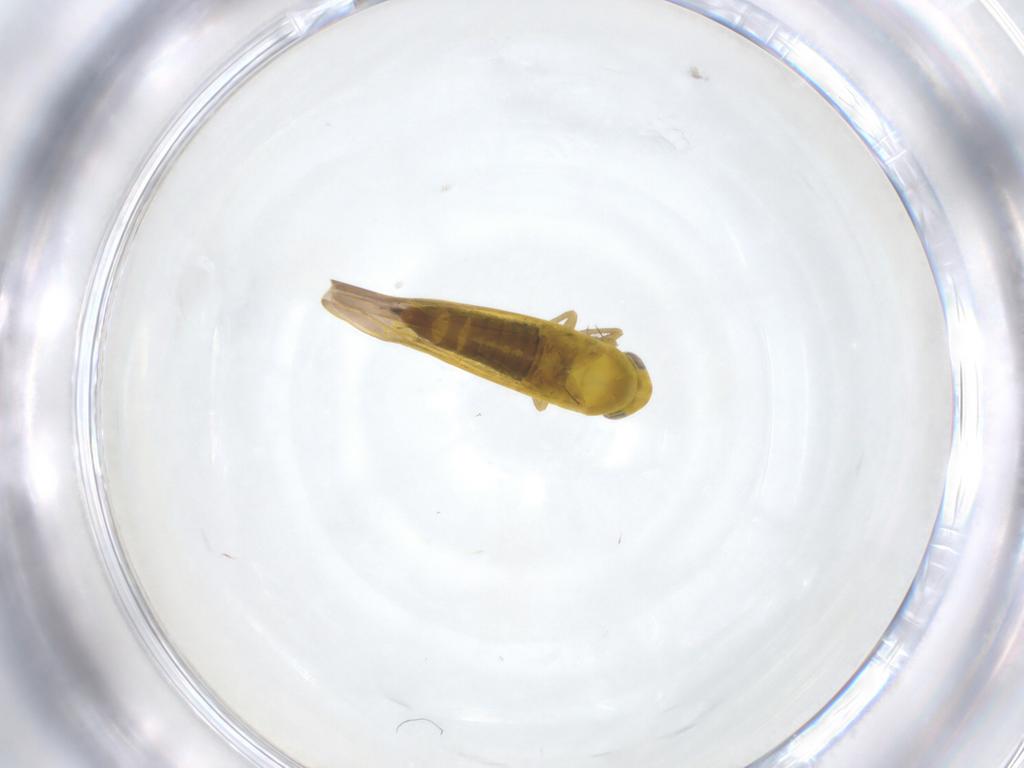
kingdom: Animalia
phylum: Arthropoda
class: Insecta
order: Hemiptera
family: Cicadellidae
